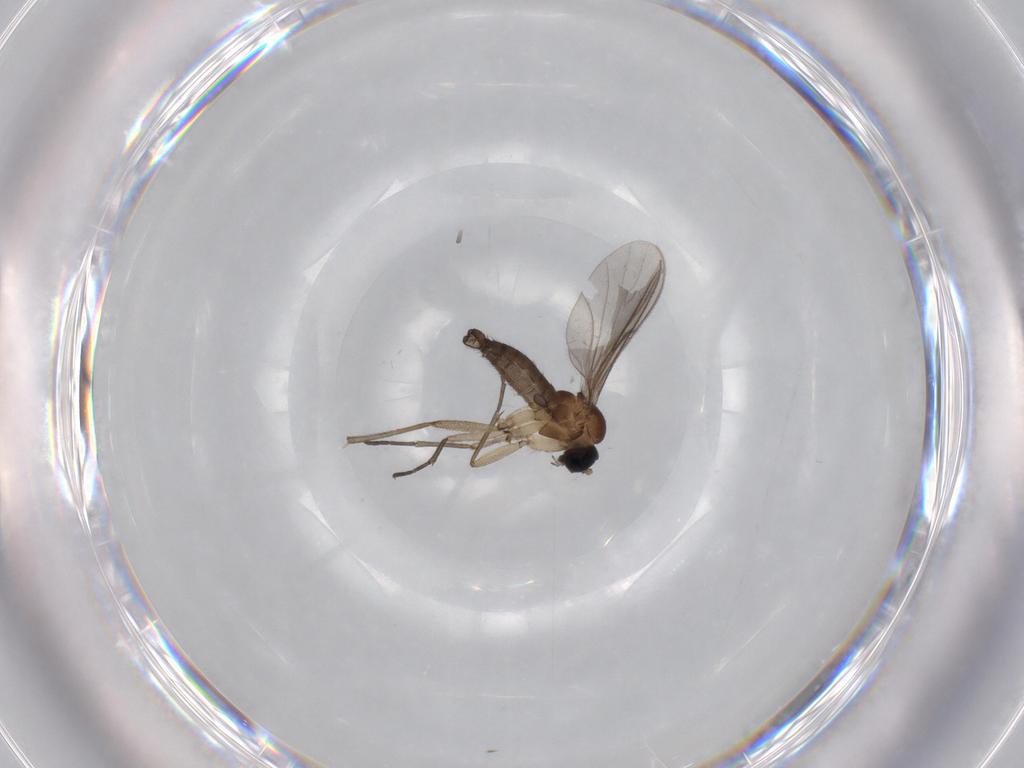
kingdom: Animalia
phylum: Arthropoda
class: Insecta
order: Diptera
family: Sciaridae
